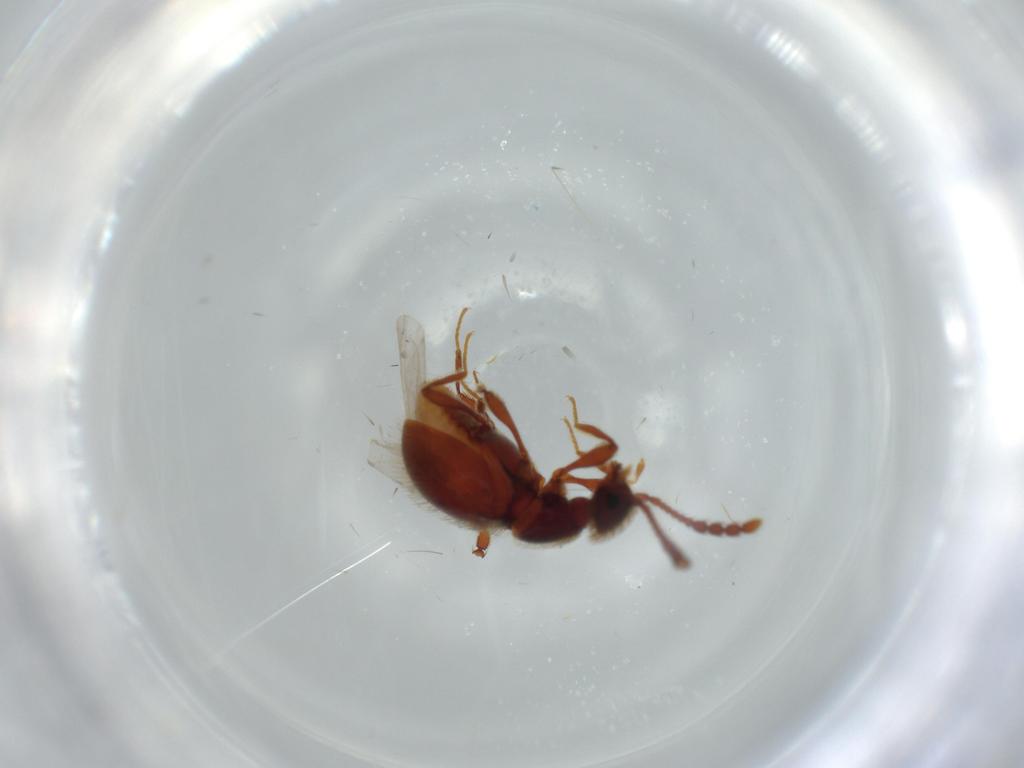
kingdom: Animalia
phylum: Arthropoda
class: Insecta
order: Coleoptera
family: Staphylinidae
